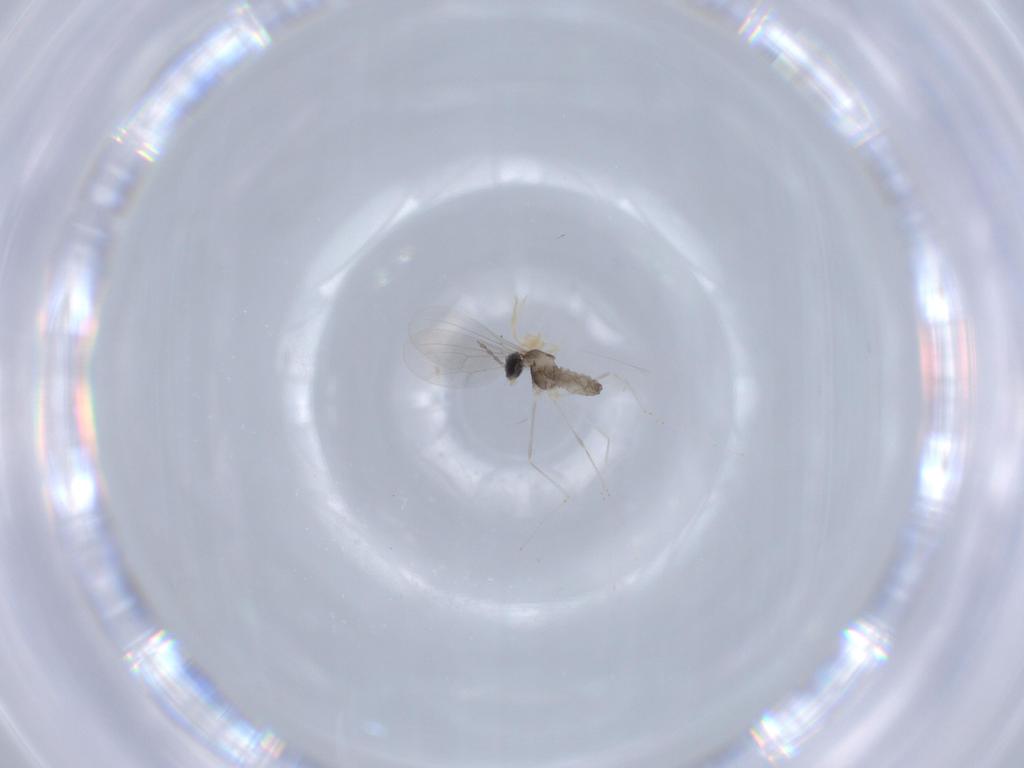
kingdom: Animalia
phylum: Arthropoda
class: Insecta
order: Diptera
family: Cecidomyiidae
